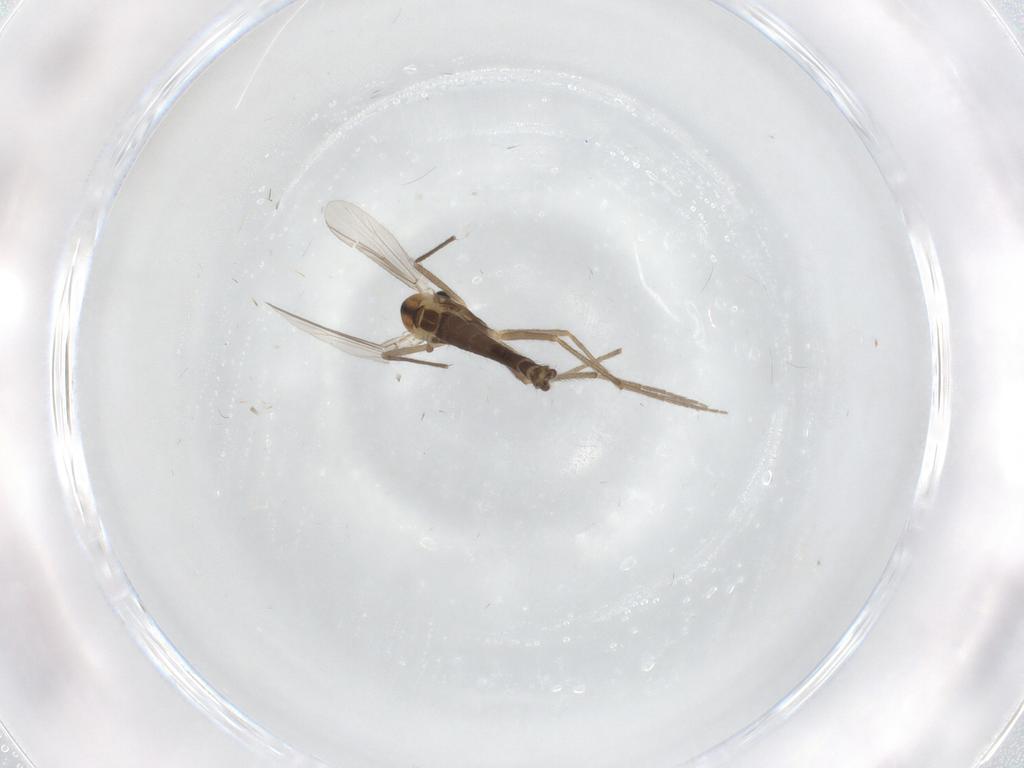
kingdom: Animalia
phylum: Arthropoda
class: Insecta
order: Diptera
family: Chironomidae
